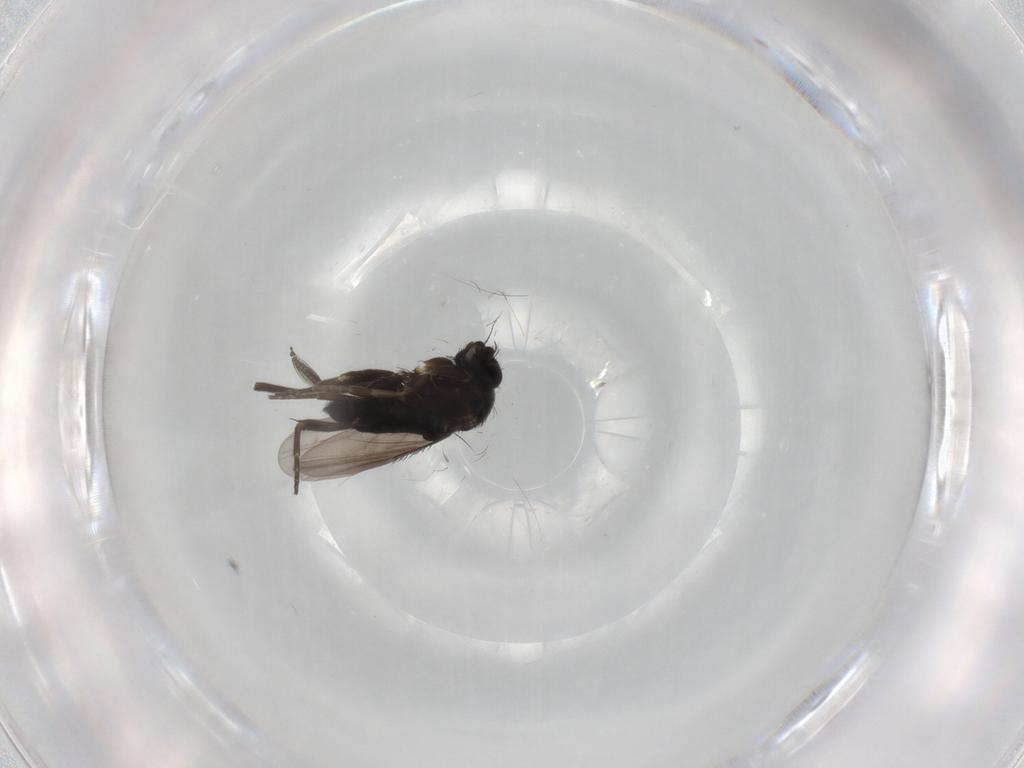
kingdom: Animalia
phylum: Arthropoda
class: Insecta
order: Diptera
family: Phoridae
